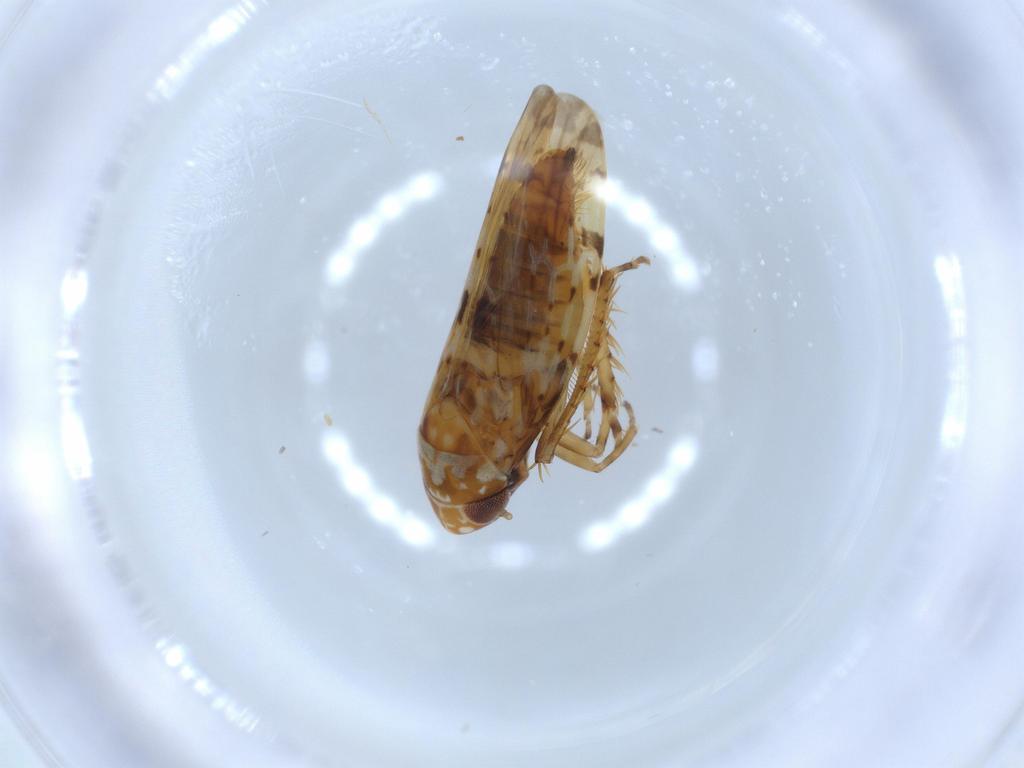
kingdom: Animalia
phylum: Arthropoda
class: Insecta
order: Hemiptera
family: Cicadellidae
